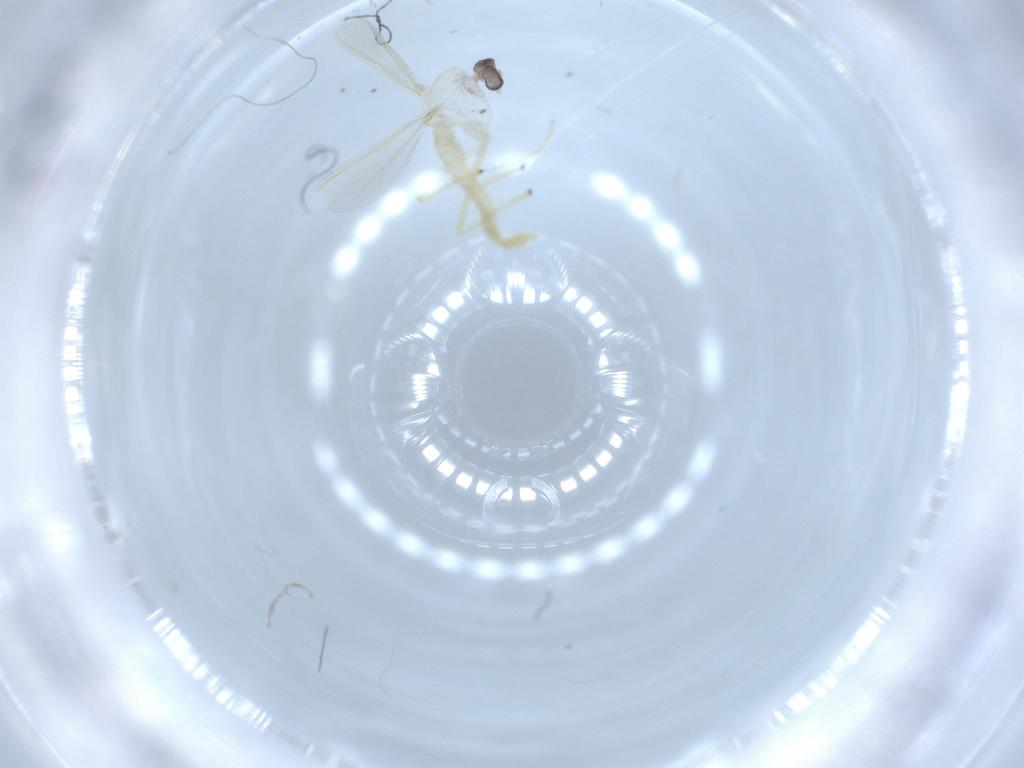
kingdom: Animalia
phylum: Arthropoda
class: Insecta
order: Diptera
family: Chironomidae
